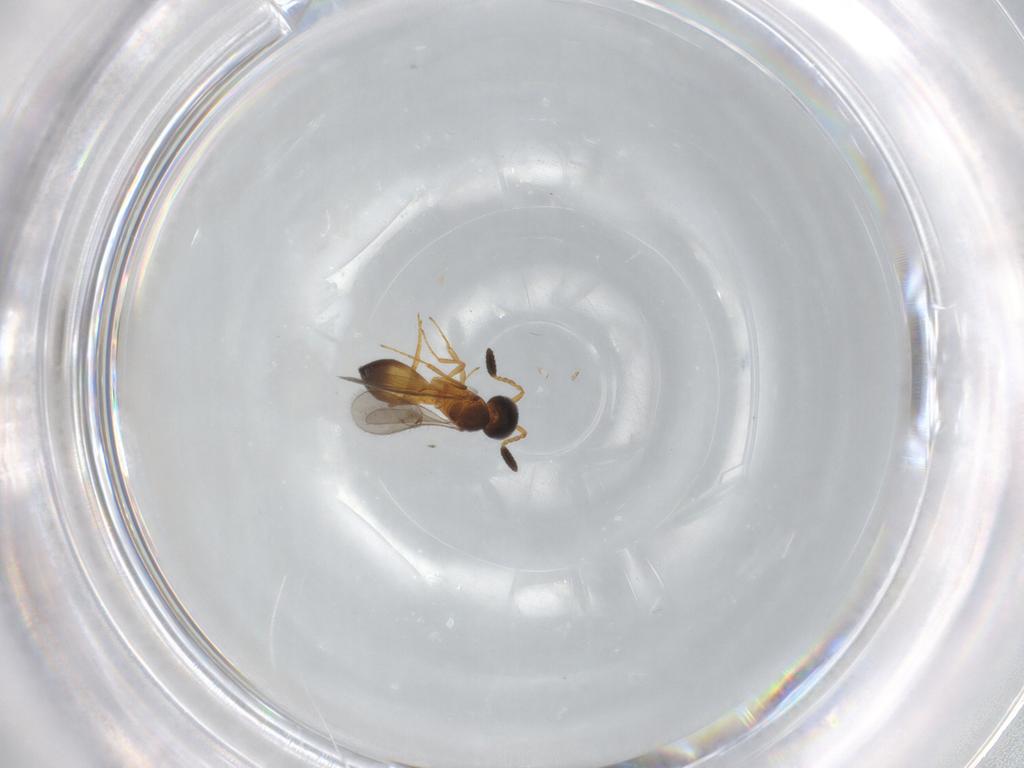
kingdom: Animalia
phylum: Arthropoda
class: Insecta
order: Hymenoptera
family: Scelionidae
